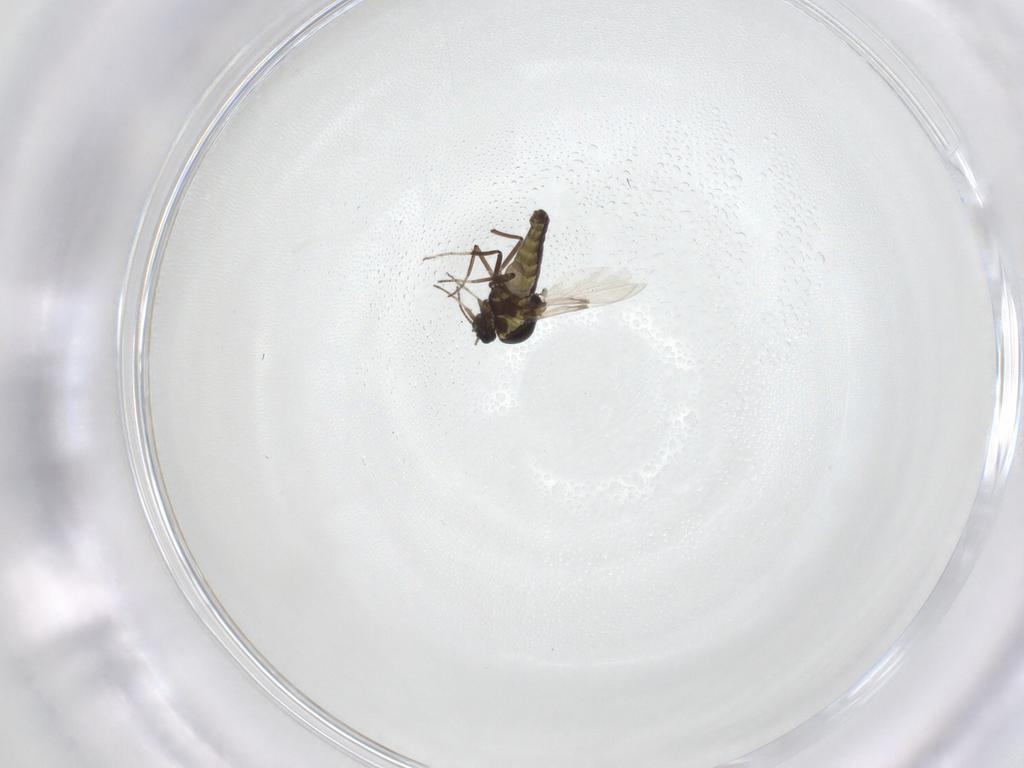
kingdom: Animalia
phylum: Arthropoda
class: Insecta
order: Diptera
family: Ceratopogonidae
